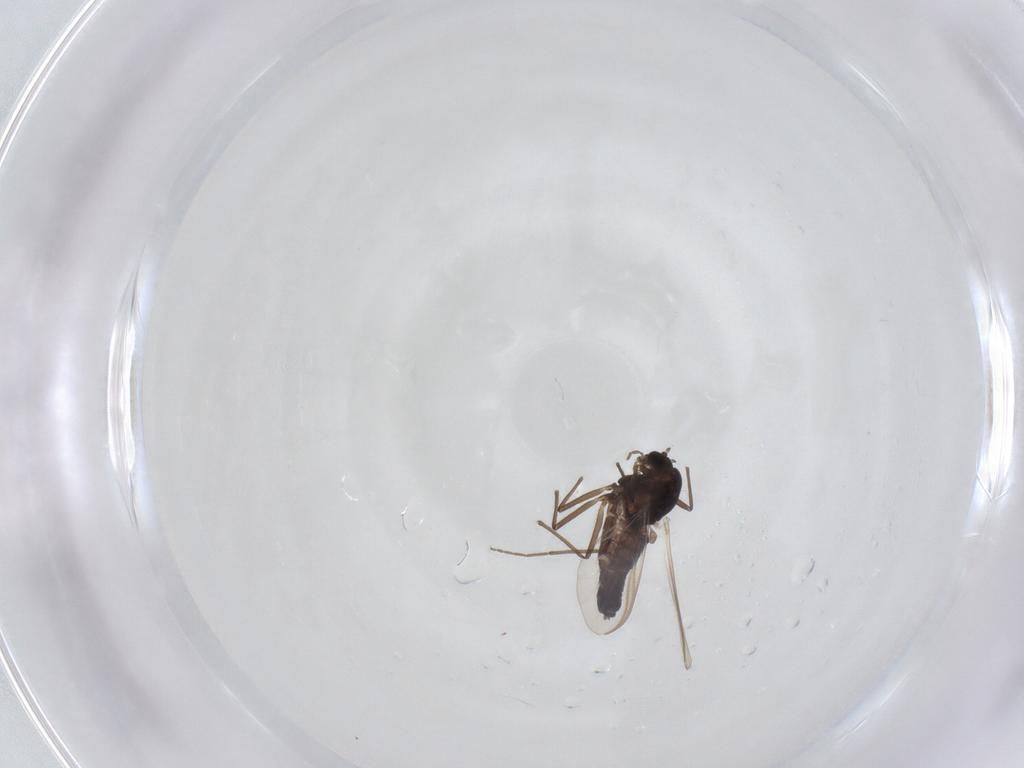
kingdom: Animalia
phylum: Arthropoda
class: Insecta
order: Diptera
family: Chironomidae
